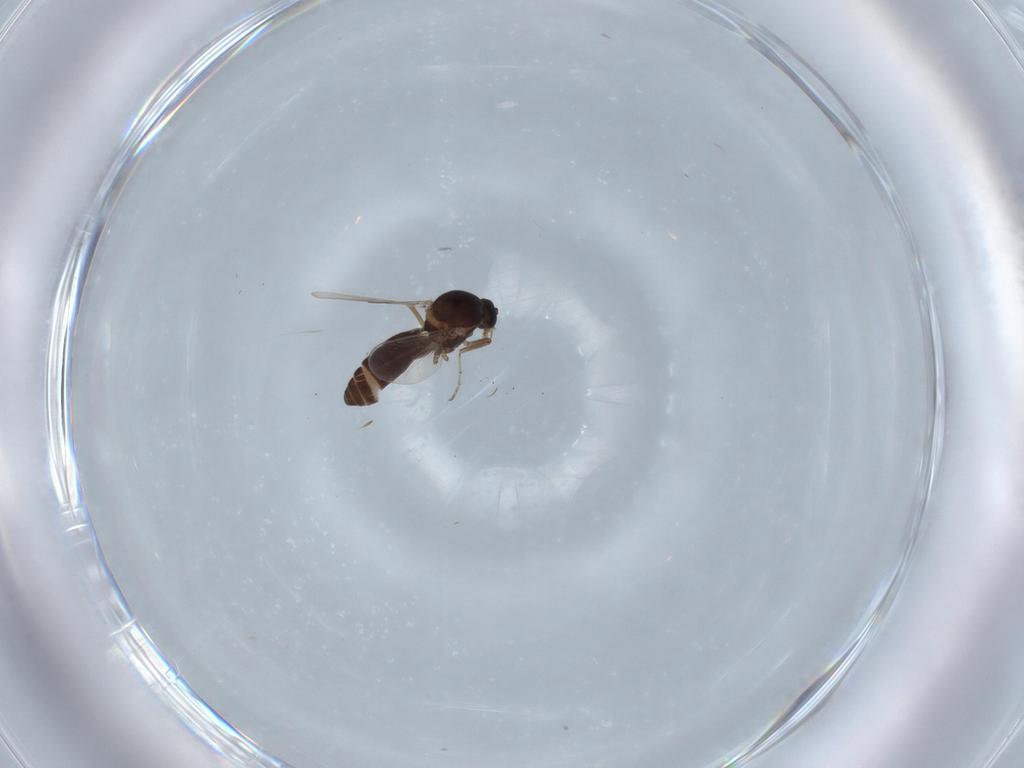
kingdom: Animalia
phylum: Arthropoda
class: Insecta
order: Diptera
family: Ceratopogonidae
